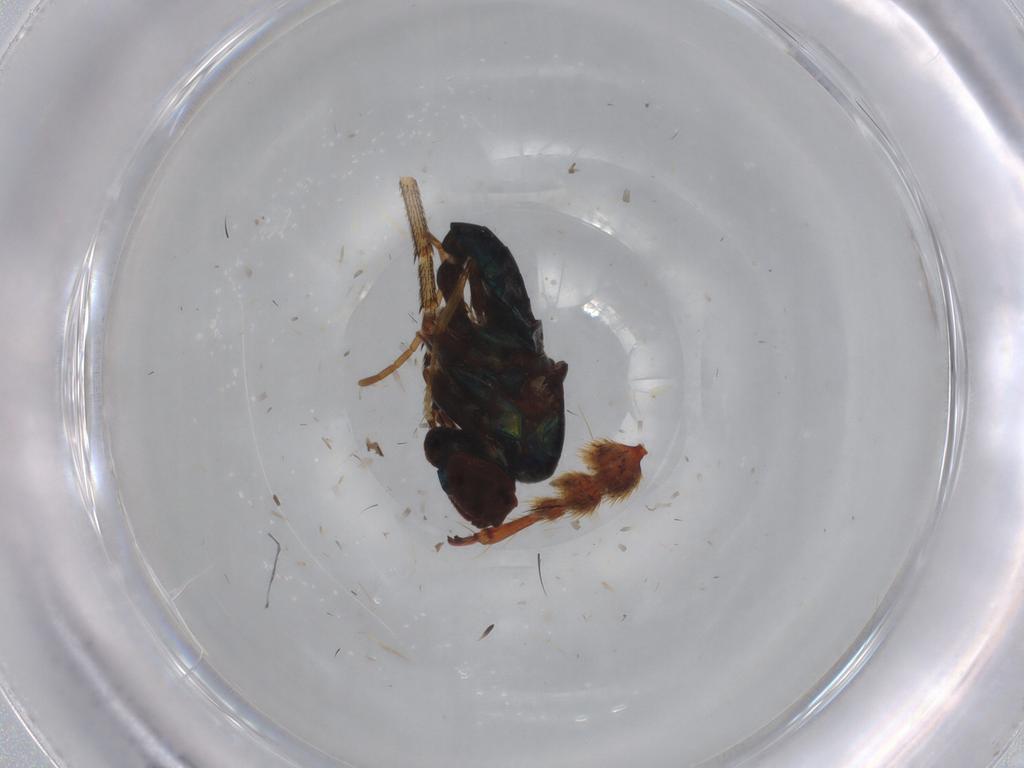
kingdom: Animalia
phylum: Arthropoda
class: Insecta
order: Diptera
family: Dolichopodidae
